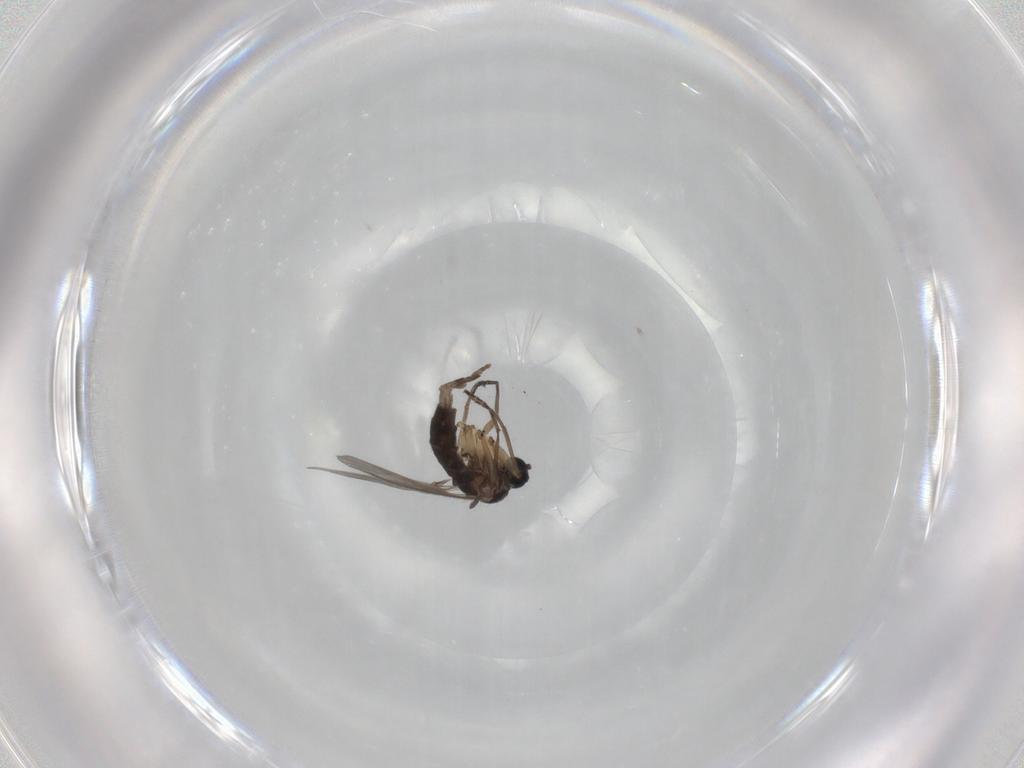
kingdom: Animalia
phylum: Arthropoda
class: Insecta
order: Diptera
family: Sciaridae
